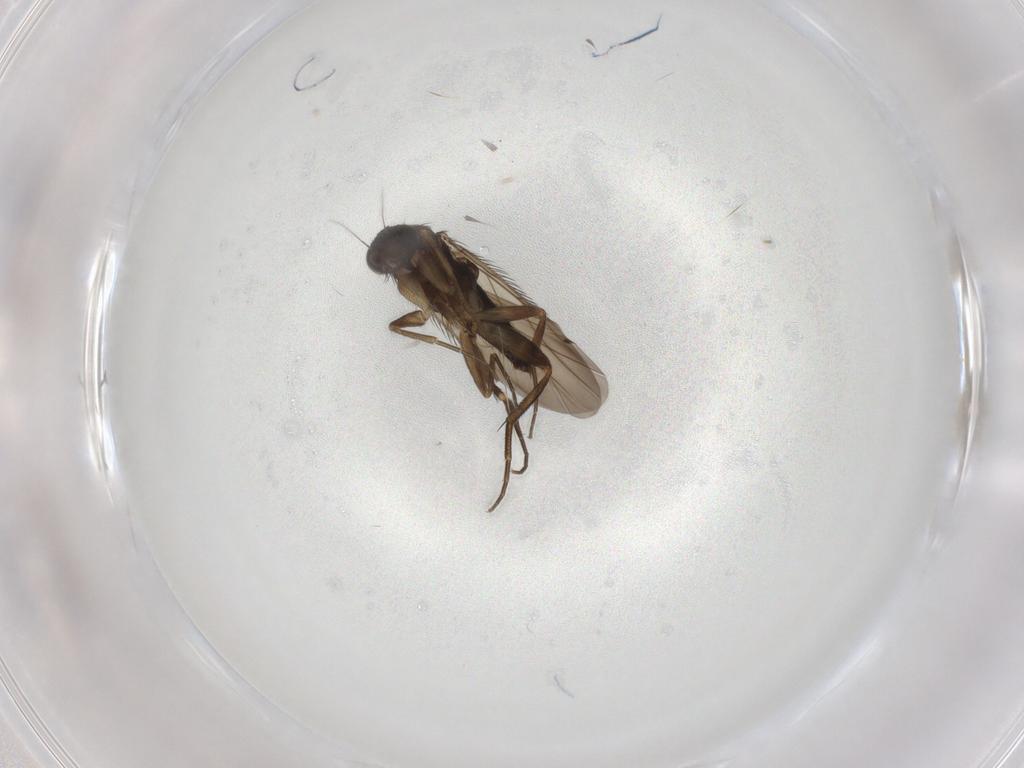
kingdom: Animalia
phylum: Arthropoda
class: Insecta
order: Diptera
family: Phoridae
